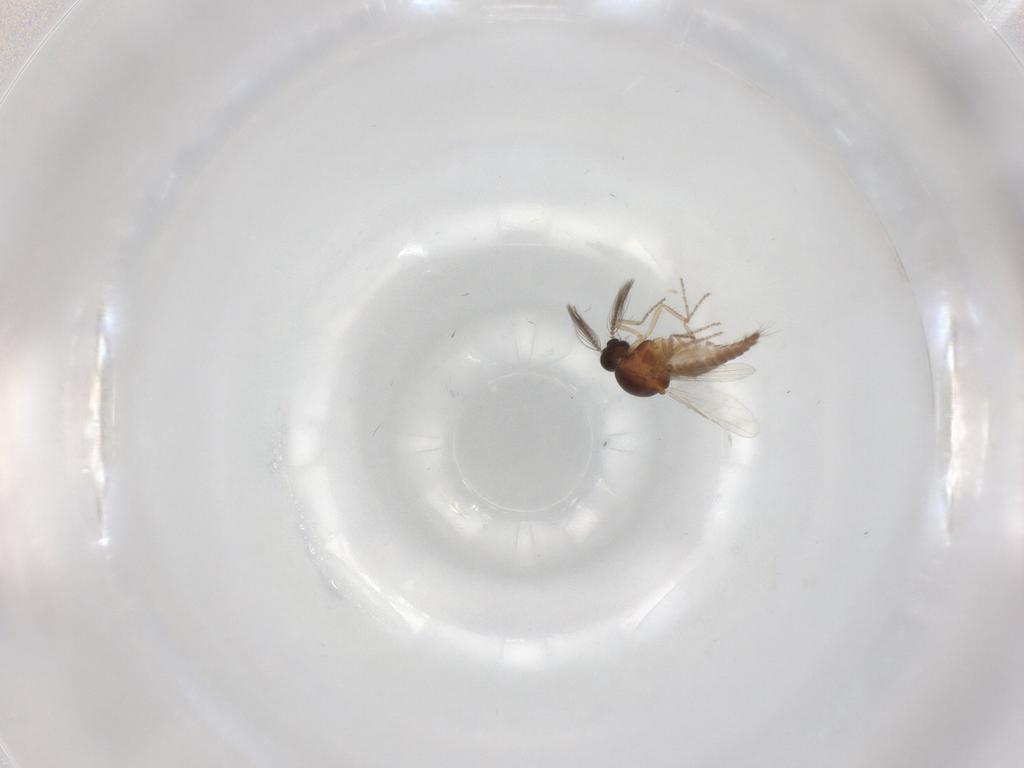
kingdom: Animalia
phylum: Arthropoda
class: Insecta
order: Diptera
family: Ceratopogonidae
